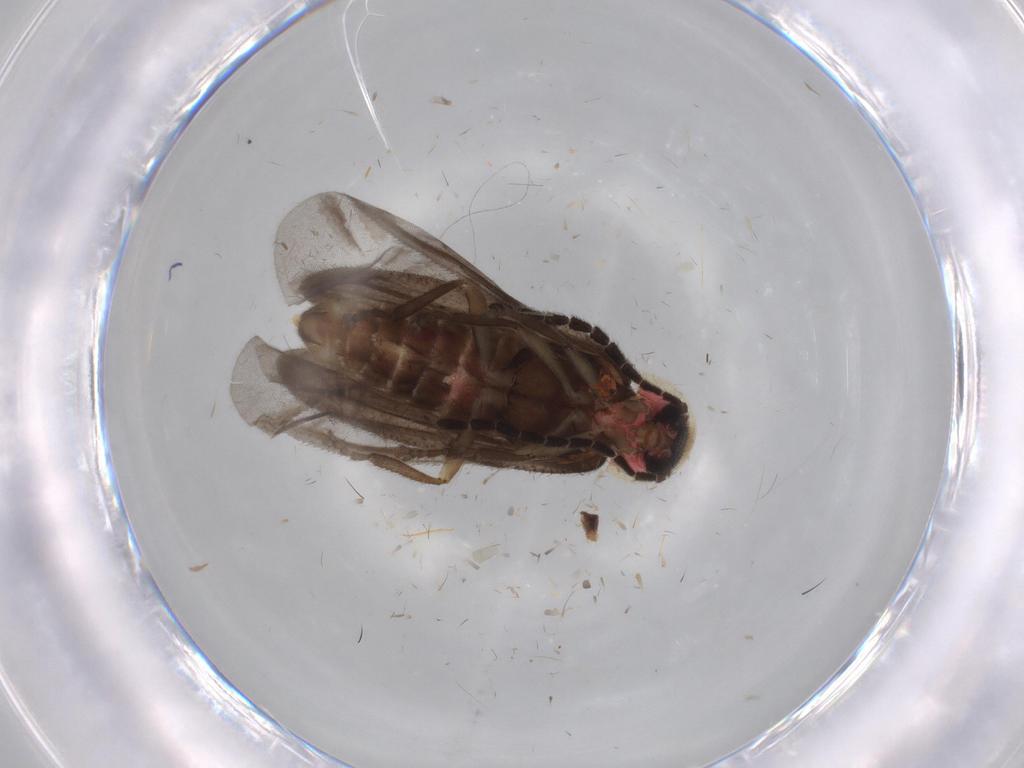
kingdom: Animalia
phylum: Arthropoda
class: Insecta
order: Coleoptera
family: Lampyridae
